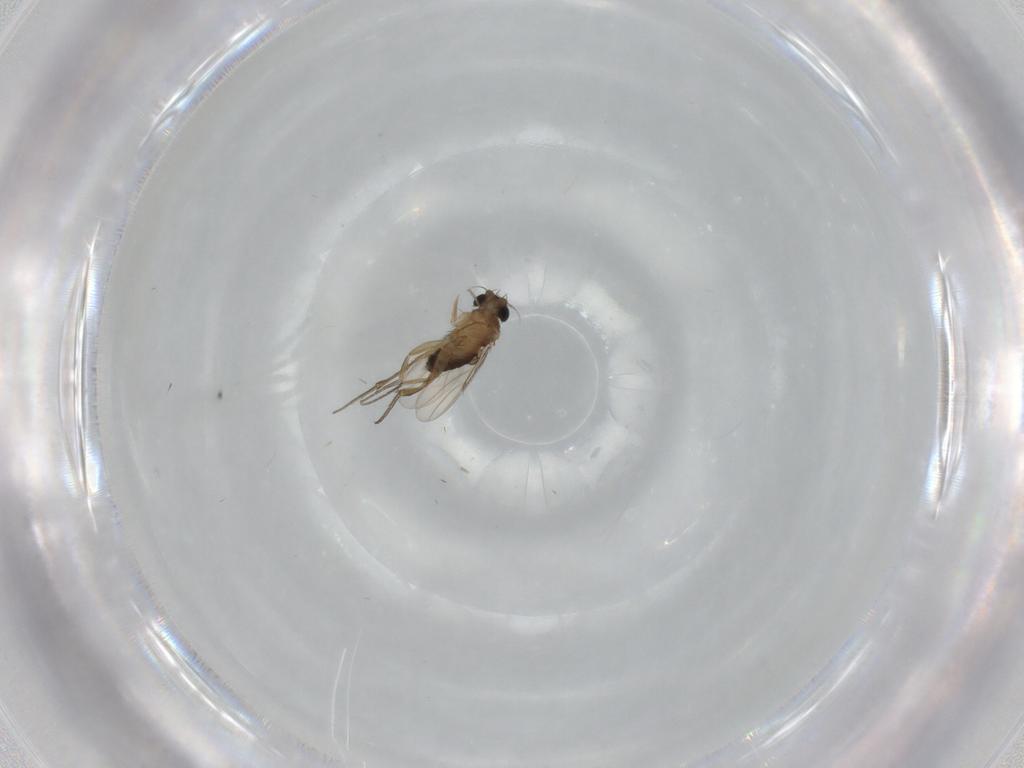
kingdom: Animalia
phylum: Arthropoda
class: Insecta
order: Diptera
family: Phoridae
